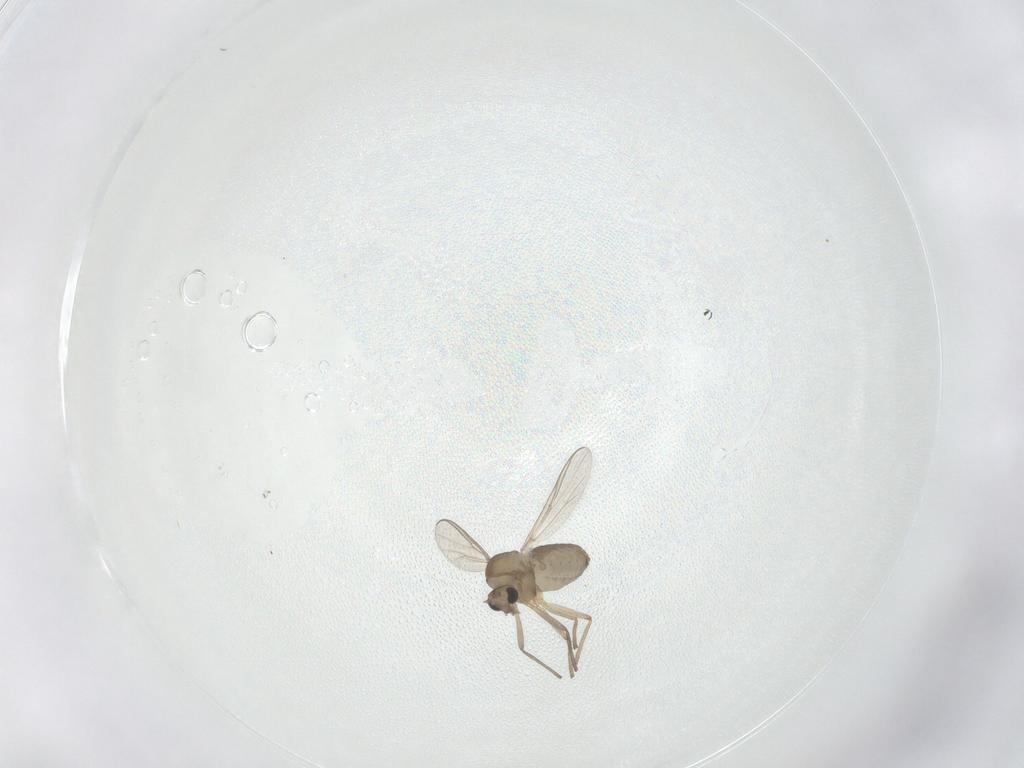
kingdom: Animalia
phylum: Arthropoda
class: Insecta
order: Diptera
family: Chironomidae
